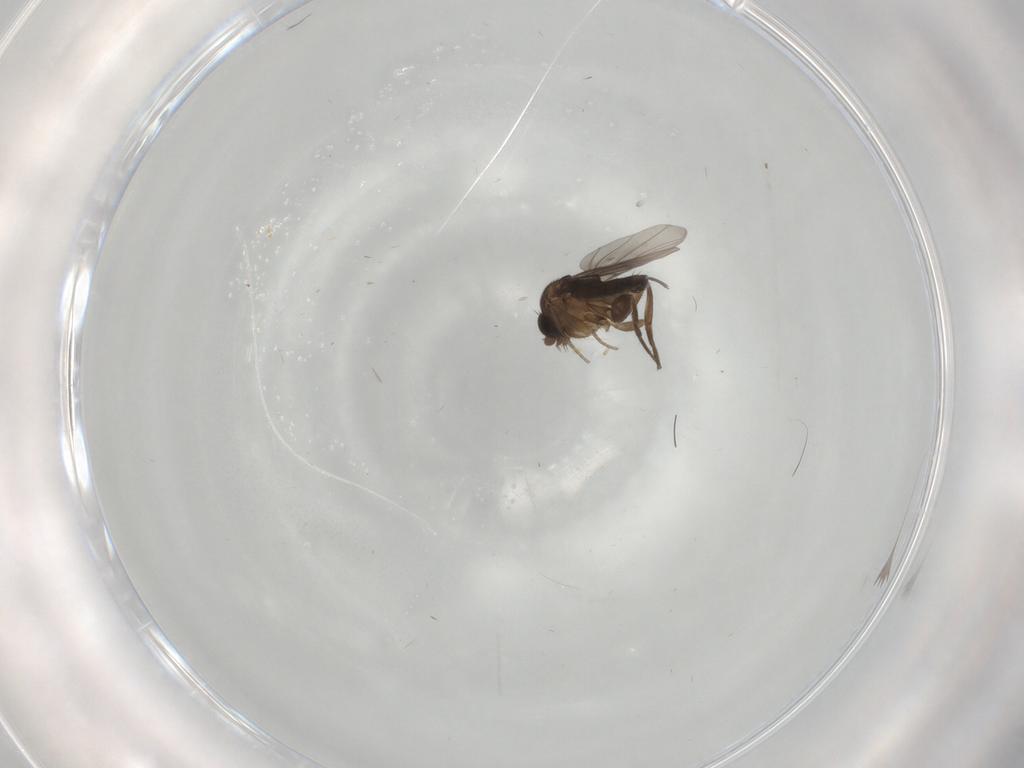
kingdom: Animalia
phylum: Arthropoda
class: Insecta
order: Diptera
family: Phoridae
